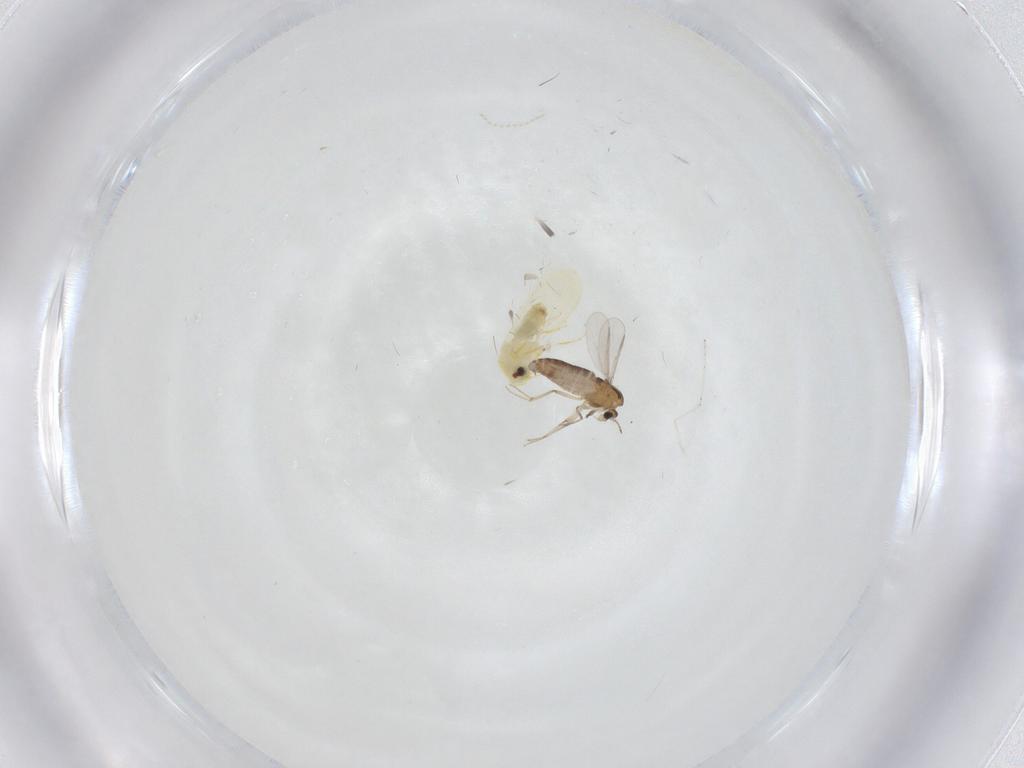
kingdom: Animalia
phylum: Arthropoda
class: Insecta
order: Diptera
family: Chironomidae
